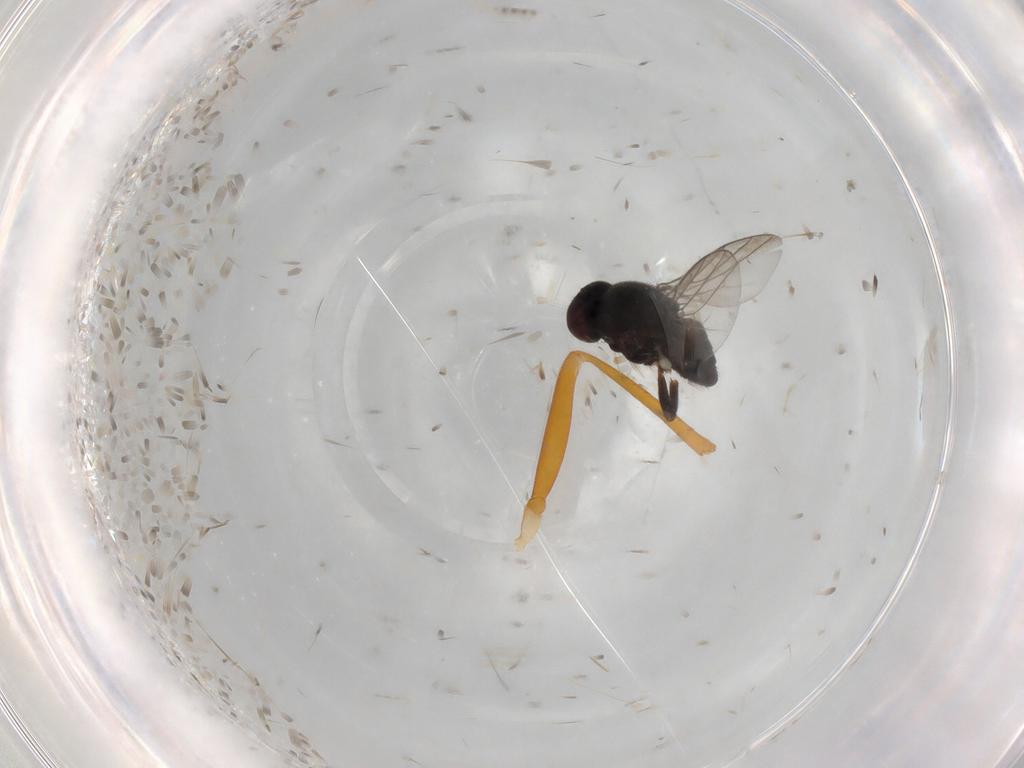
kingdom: Animalia
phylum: Arthropoda
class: Insecta
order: Diptera
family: Chloropidae
